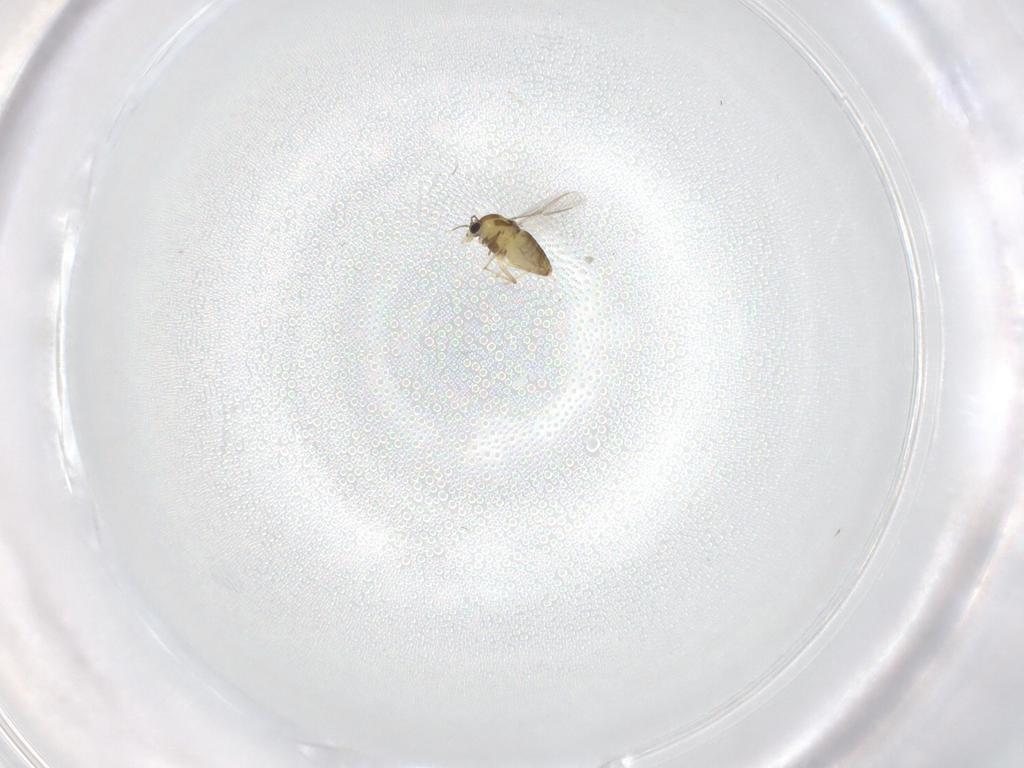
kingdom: Animalia
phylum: Arthropoda
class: Insecta
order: Diptera
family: Chironomidae
